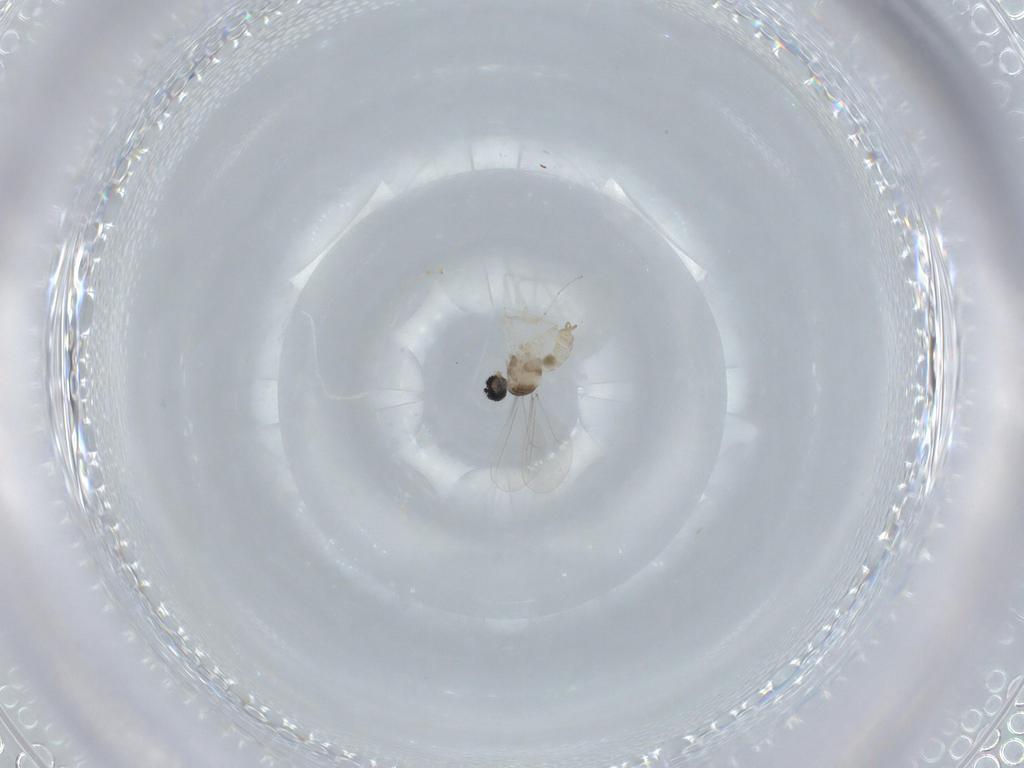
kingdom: Animalia
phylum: Arthropoda
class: Insecta
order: Diptera
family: Cecidomyiidae
